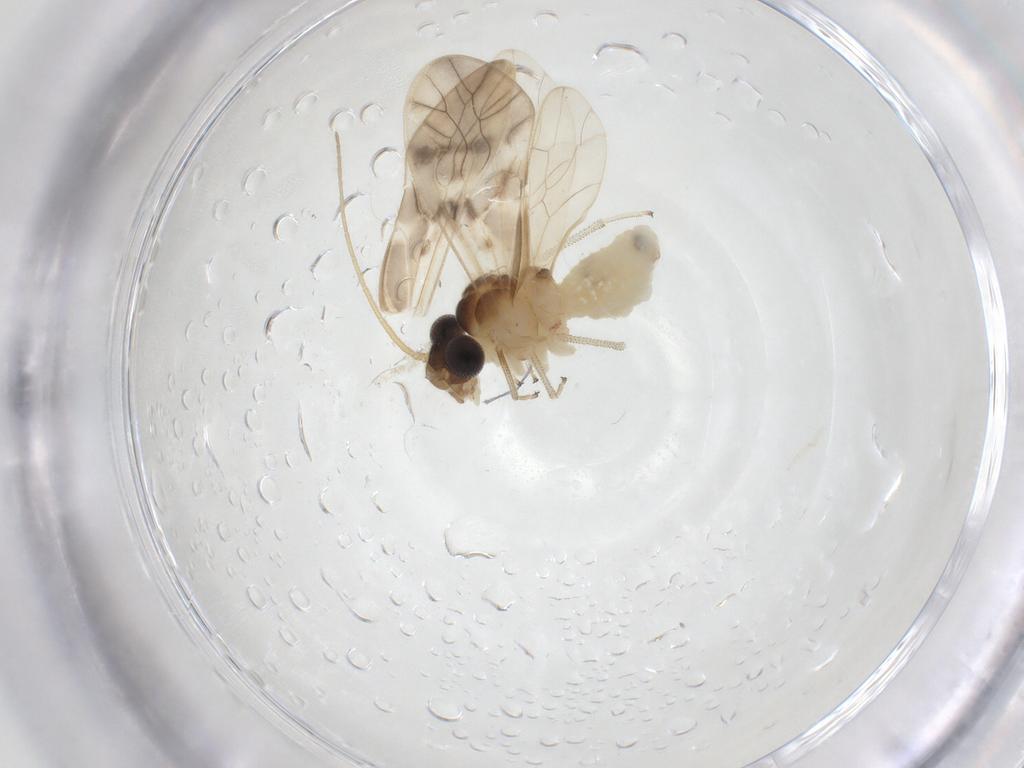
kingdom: Animalia
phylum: Arthropoda
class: Insecta
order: Psocodea
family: Caeciliusidae
